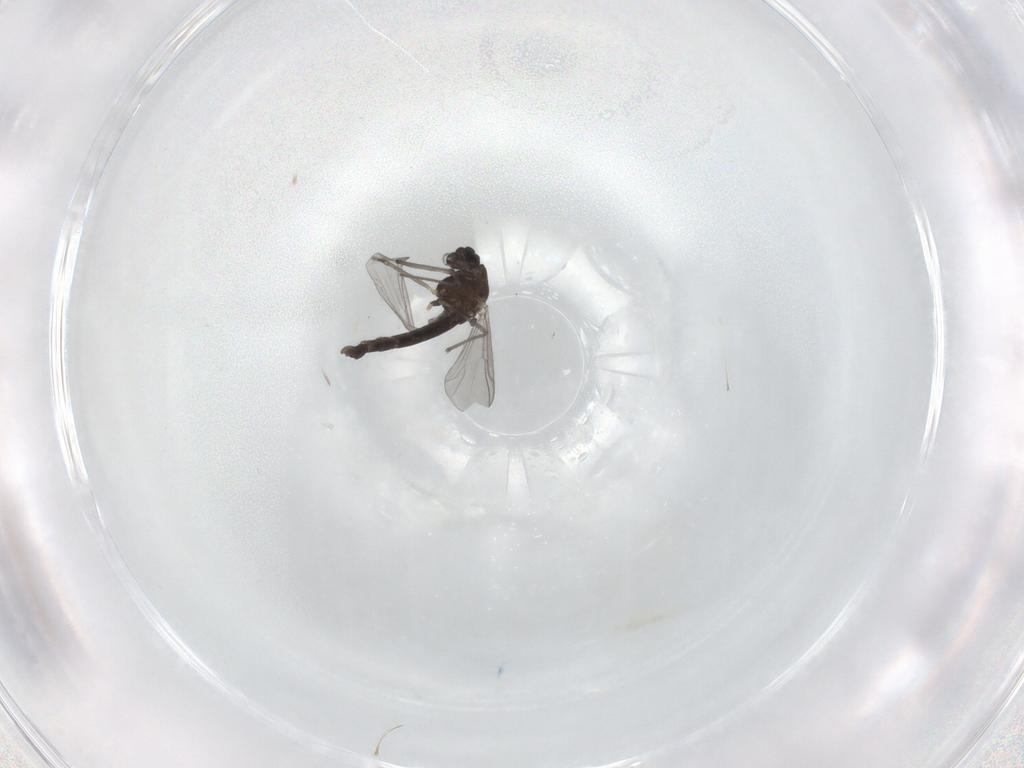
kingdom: Animalia
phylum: Arthropoda
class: Insecta
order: Diptera
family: Chironomidae
